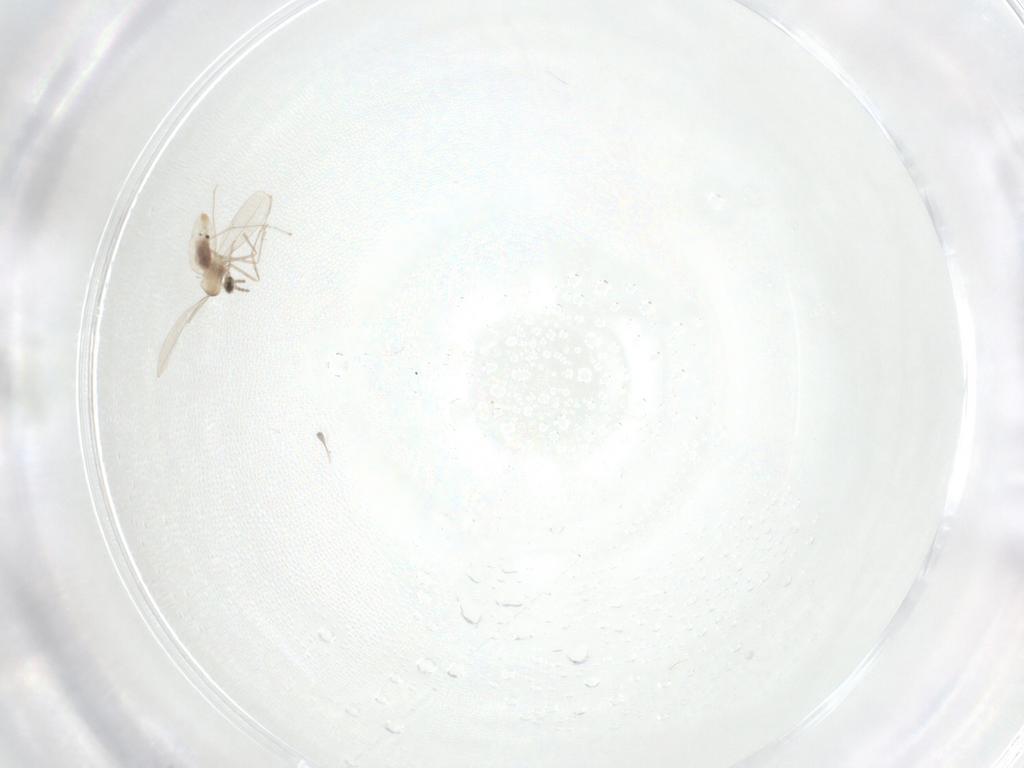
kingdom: Animalia
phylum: Arthropoda
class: Insecta
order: Diptera
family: Cecidomyiidae
